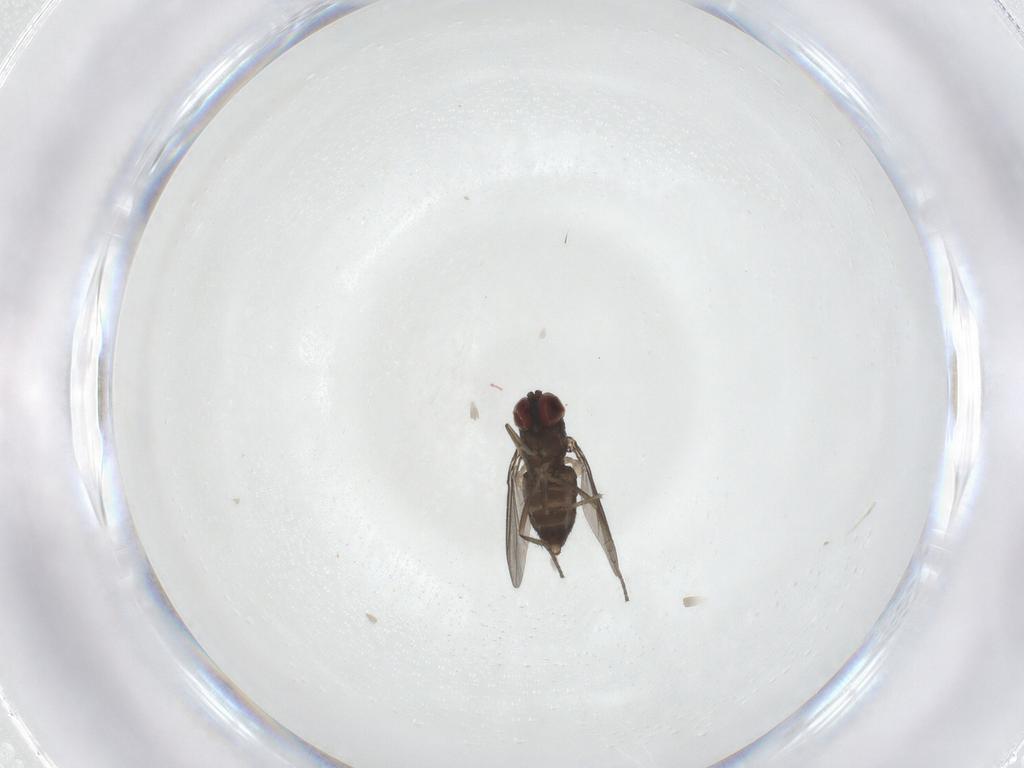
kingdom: Animalia
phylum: Arthropoda
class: Insecta
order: Diptera
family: Dolichopodidae
